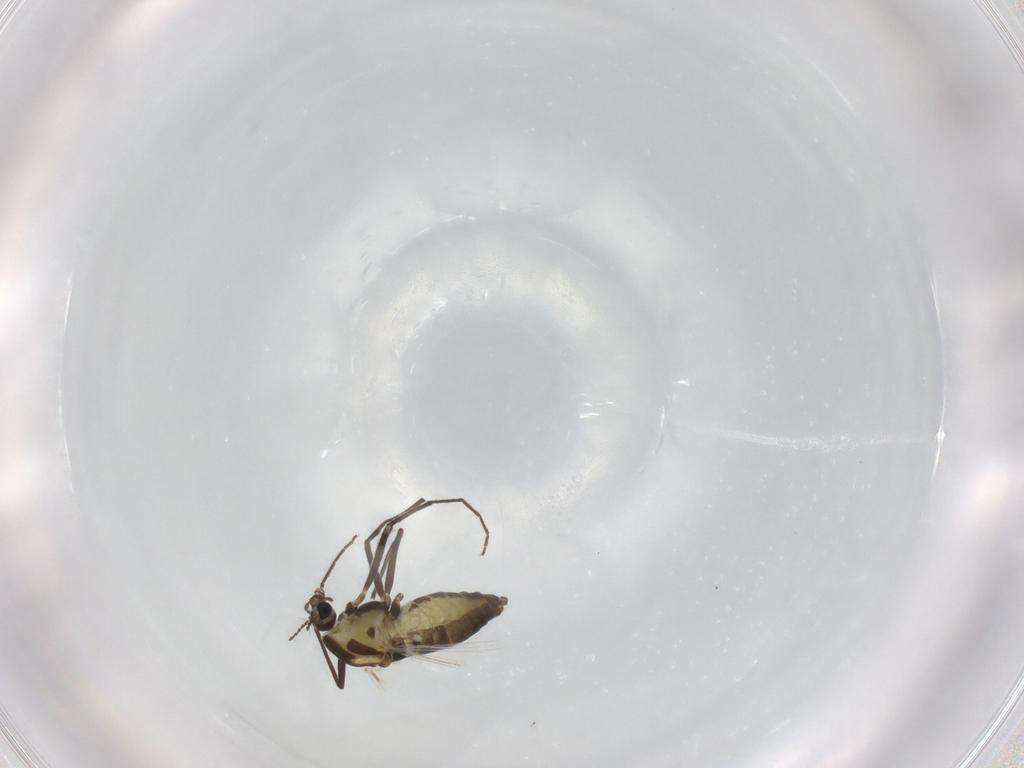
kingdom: Animalia
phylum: Arthropoda
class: Insecta
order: Diptera
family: Chironomidae
